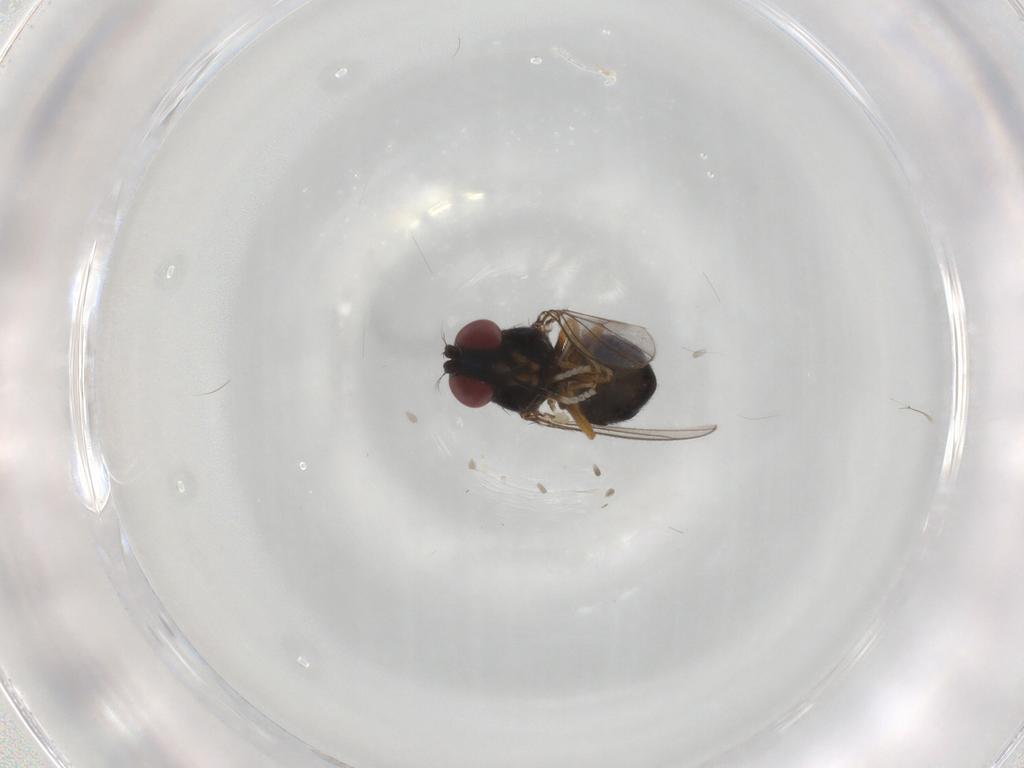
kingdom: Animalia
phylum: Arthropoda
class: Insecta
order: Diptera
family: Ephydridae
